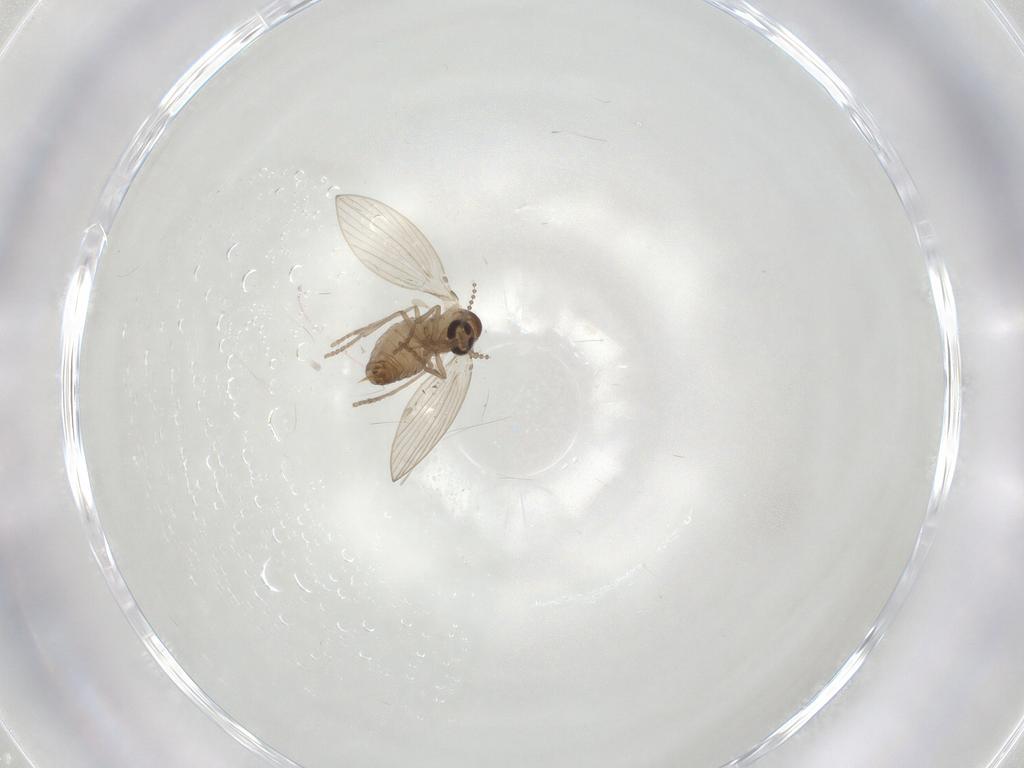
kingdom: Animalia
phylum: Arthropoda
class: Insecta
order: Diptera
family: Psychodidae
